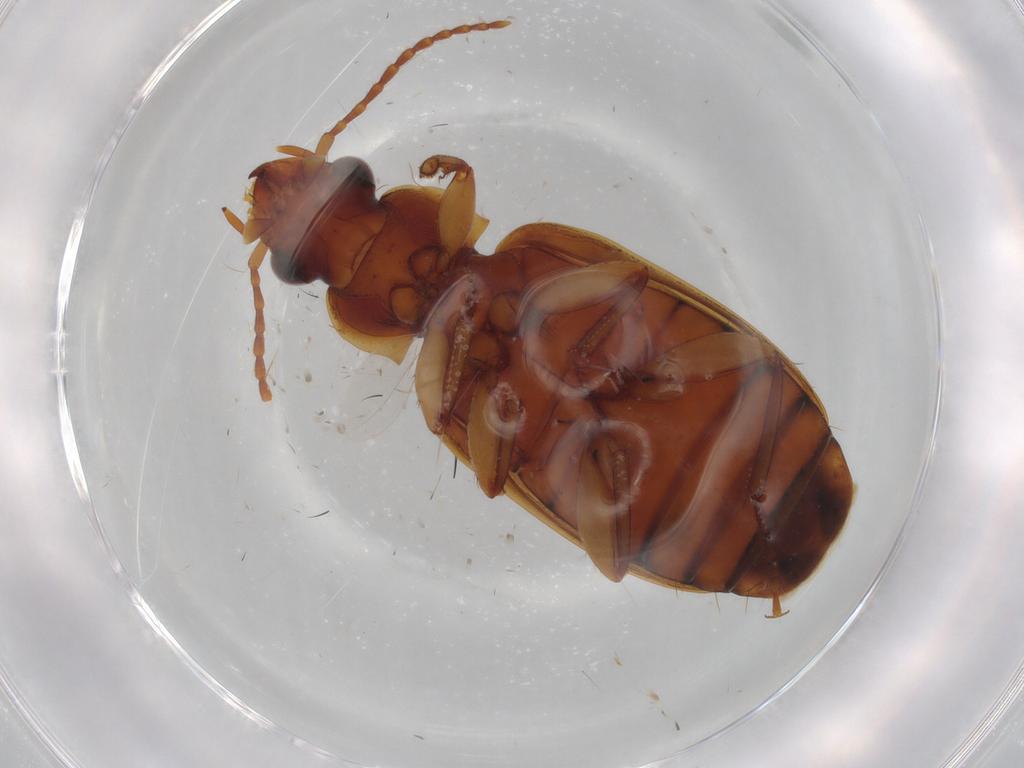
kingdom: Animalia
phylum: Arthropoda
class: Insecta
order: Coleoptera
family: Carabidae
